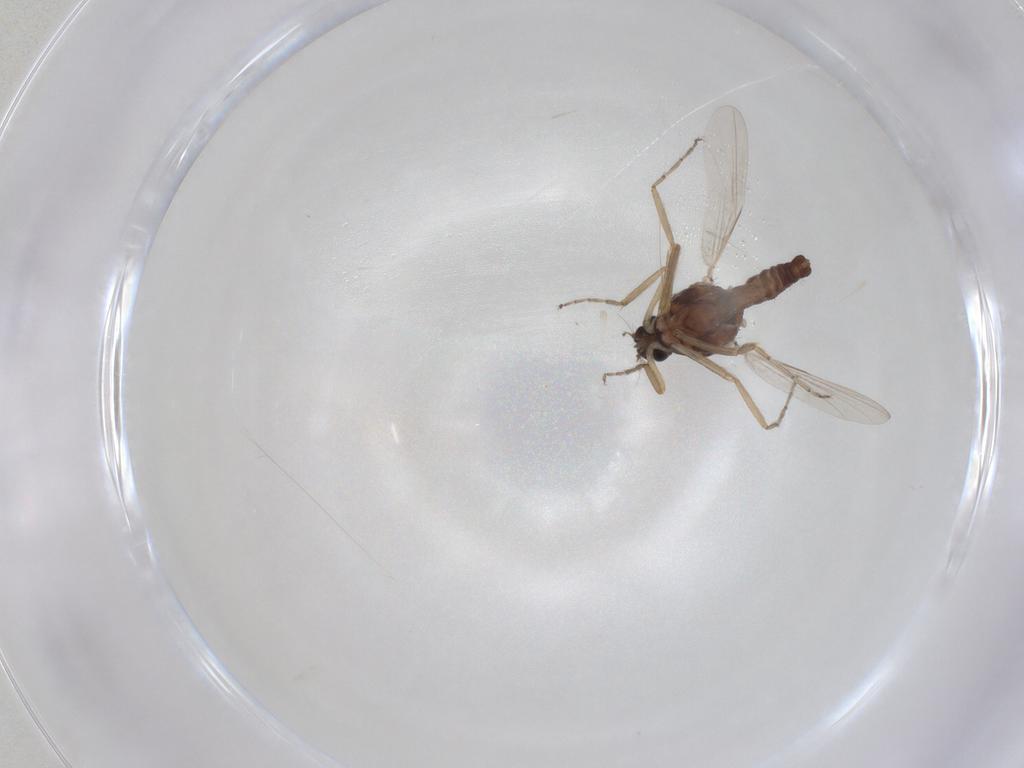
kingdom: Animalia
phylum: Arthropoda
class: Insecta
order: Diptera
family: Ceratopogonidae
